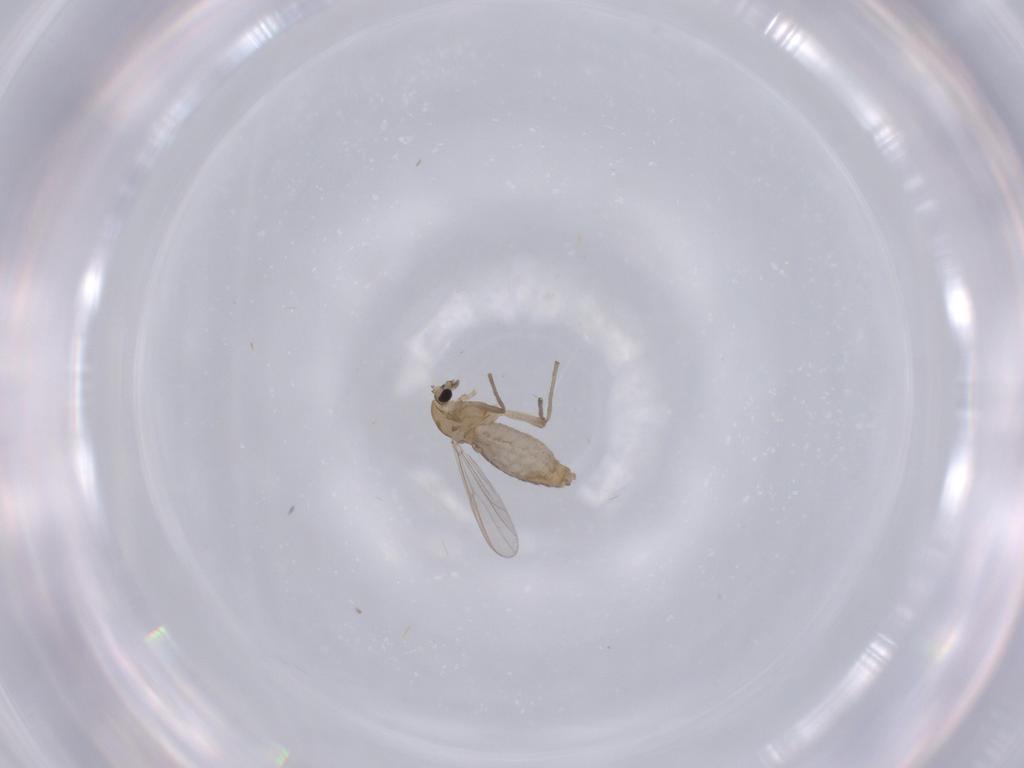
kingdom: Animalia
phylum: Arthropoda
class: Insecta
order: Diptera
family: Chironomidae
